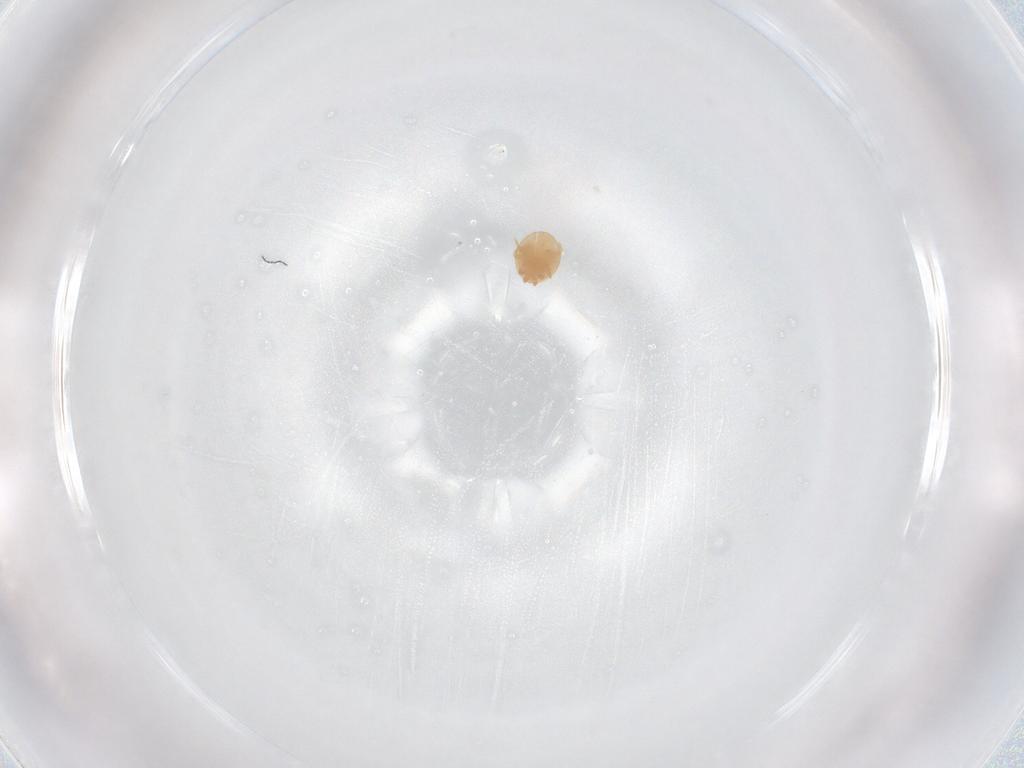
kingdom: Animalia
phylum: Arthropoda
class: Arachnida
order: Mesostigmata
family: Trematuridae
